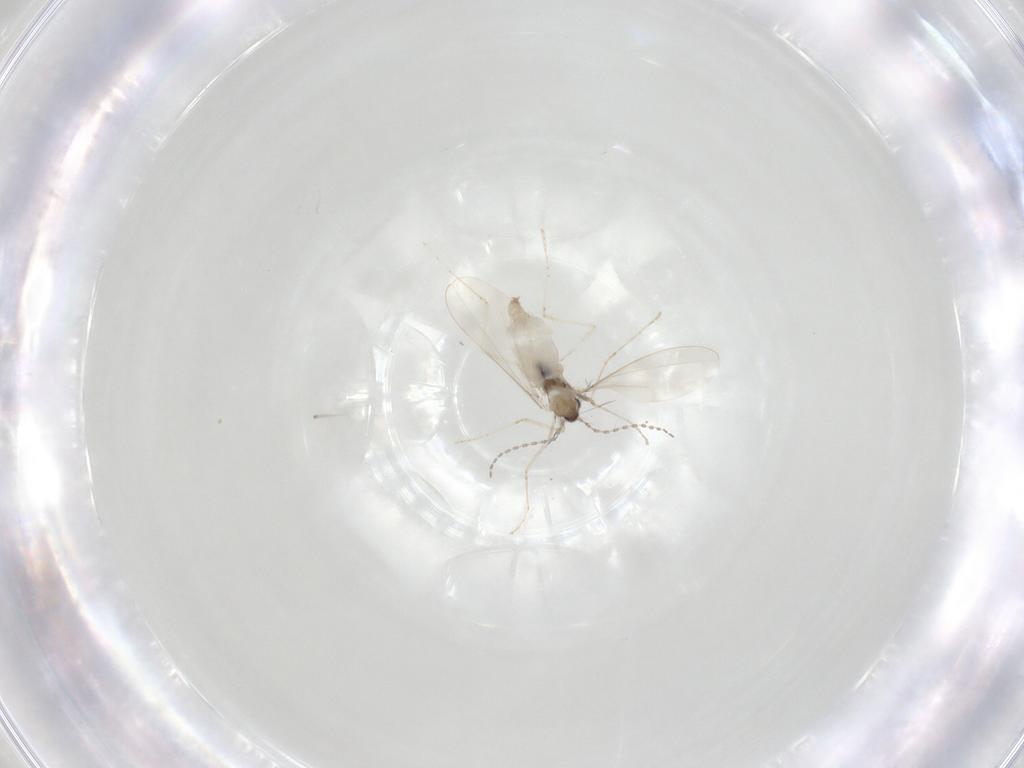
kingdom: Animalia
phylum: Arthropoda
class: Insecta
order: Diptera
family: Cecidomyiidae
